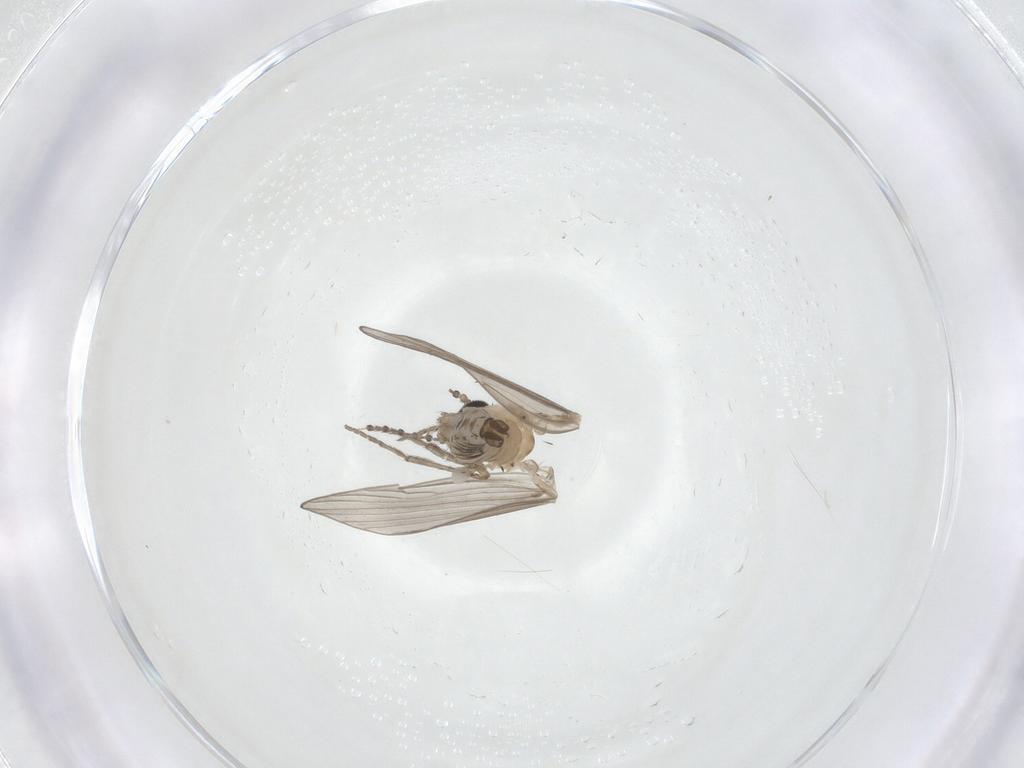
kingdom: Animalia
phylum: Arthropoda
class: Insecta
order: Diptera
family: Psychodidae
